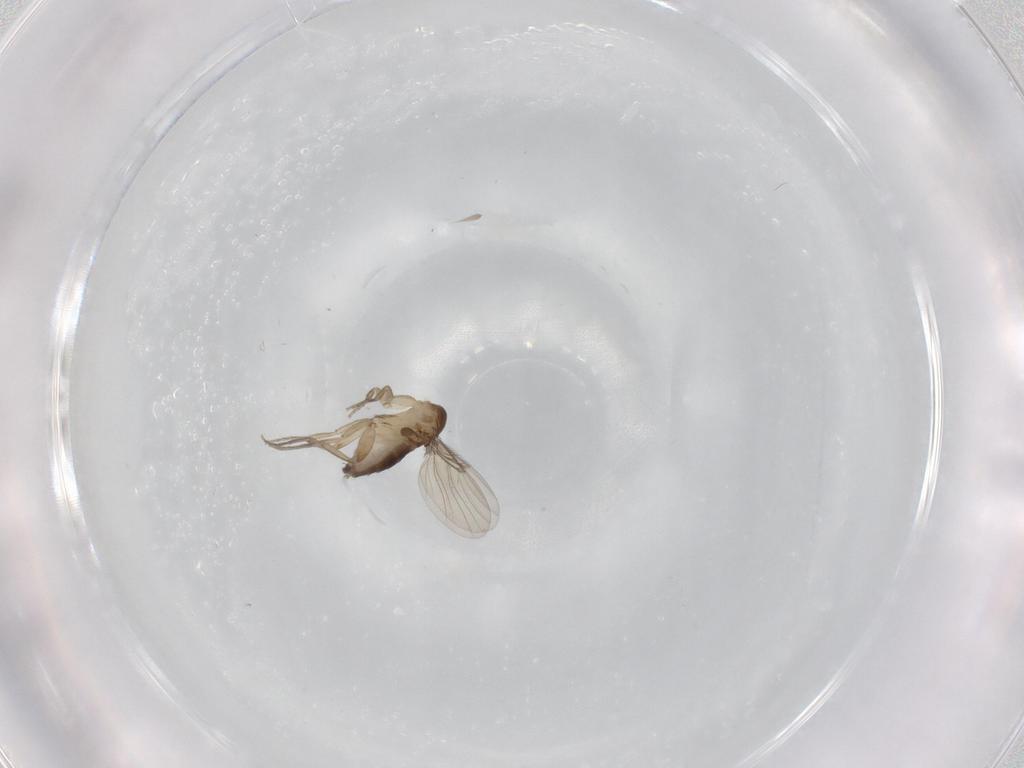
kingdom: Animalia
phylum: Arthropoda
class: Insecta
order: Diptera
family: Phoridae
